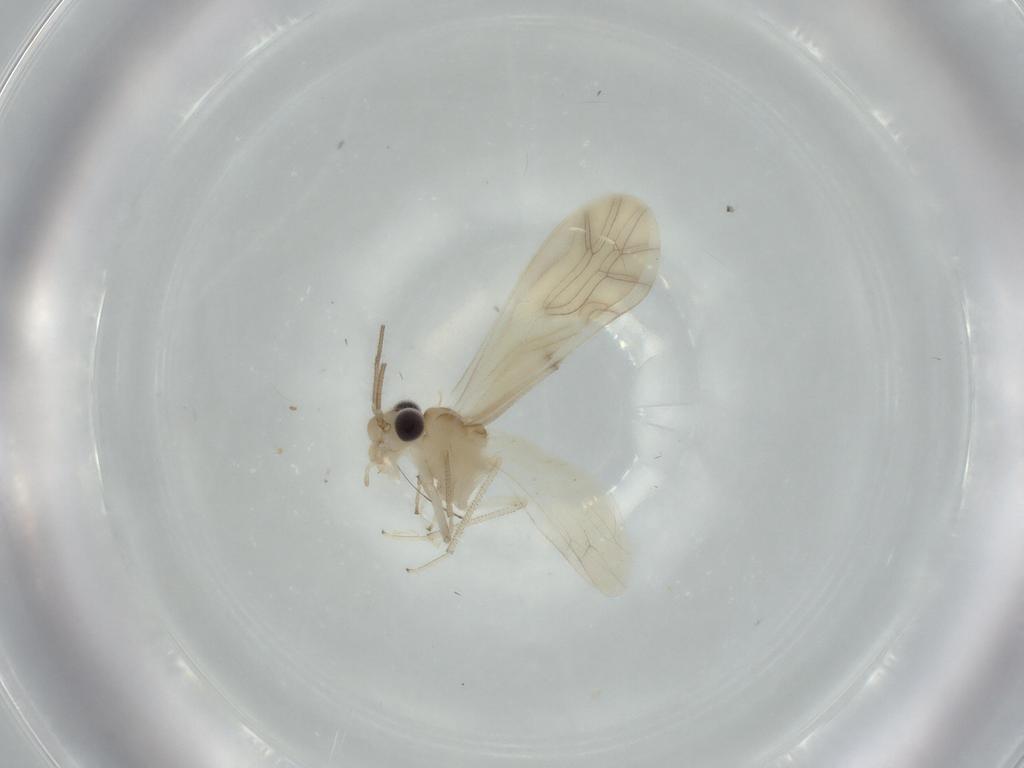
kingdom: Animalia
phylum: Arthropoda
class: Insecta
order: Psocodea
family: Caeciliusidae
